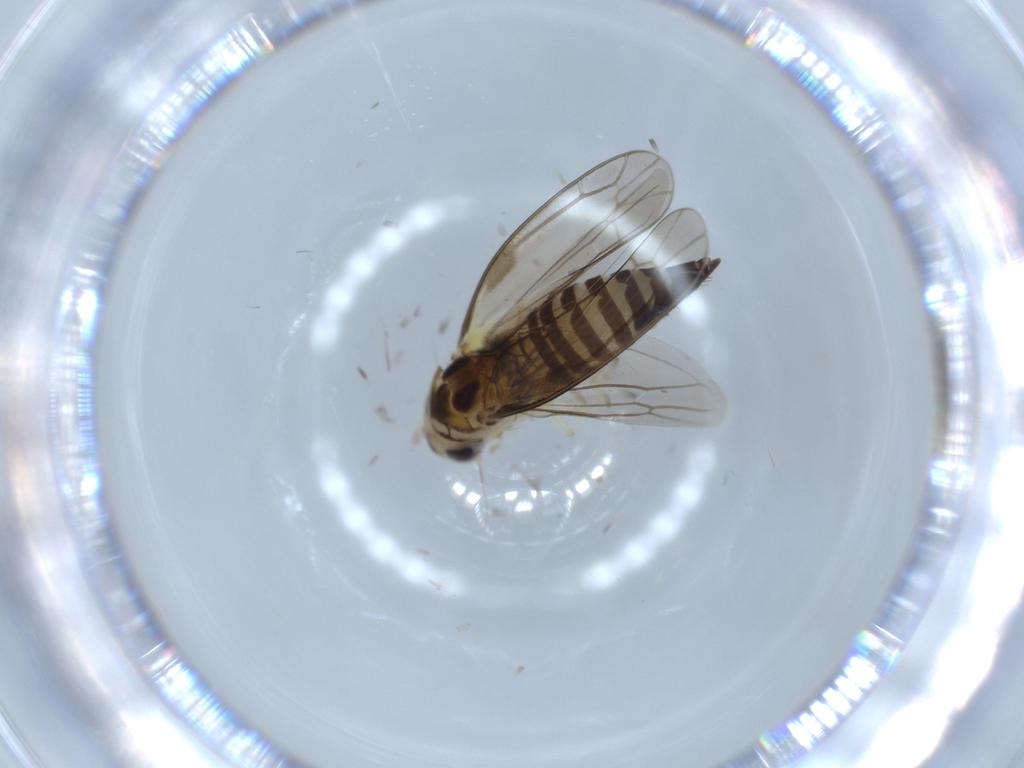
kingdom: Animalia
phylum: Arthropoda
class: Insecta
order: Hemiptera
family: Cicadellidae
